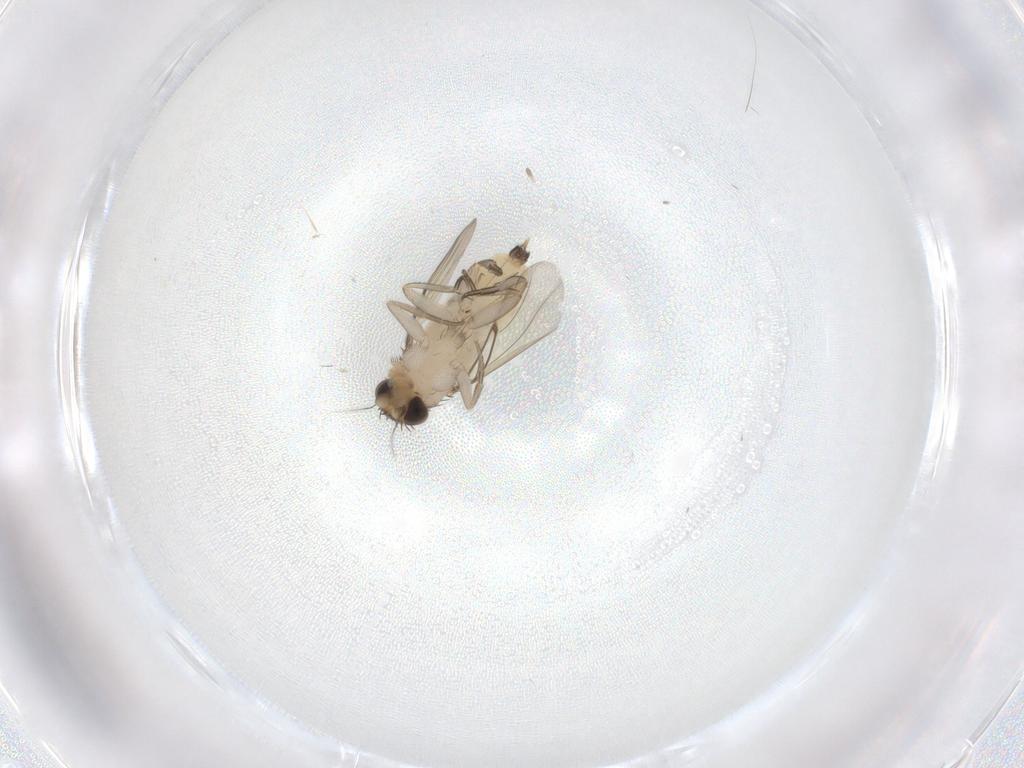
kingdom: Animalia
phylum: Arthropoda
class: Insecta
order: Diptera
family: Phoridae
